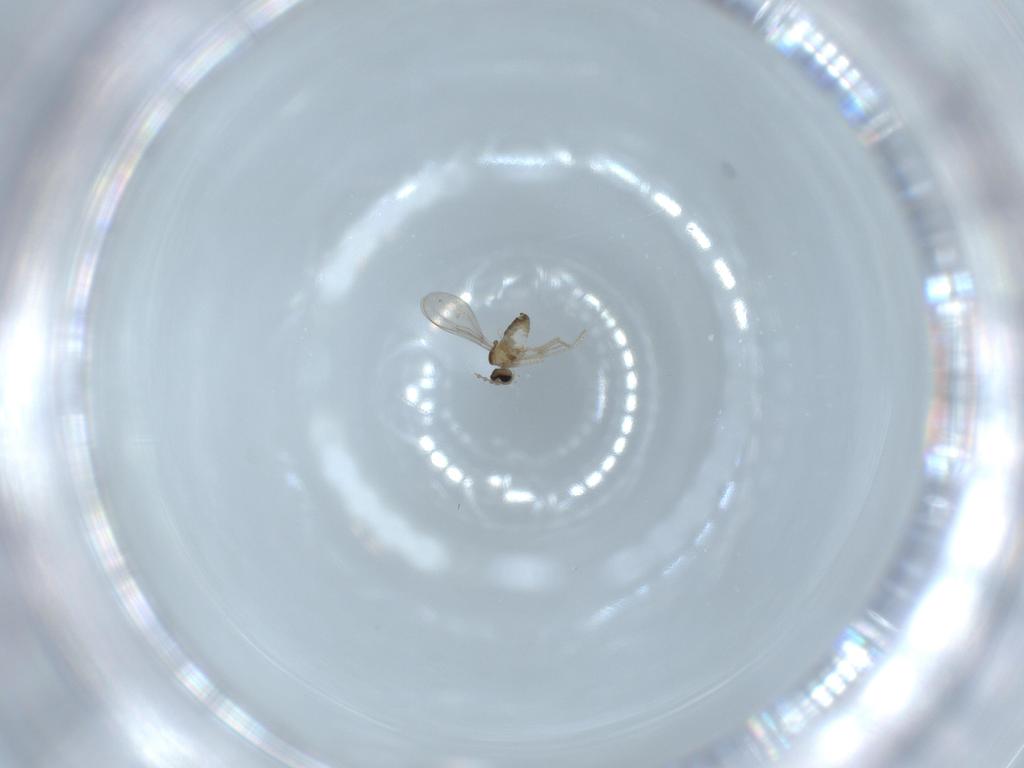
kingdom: Animalia
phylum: Arthropoda
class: Insecta
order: Diptera
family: Cecidomyiidae
